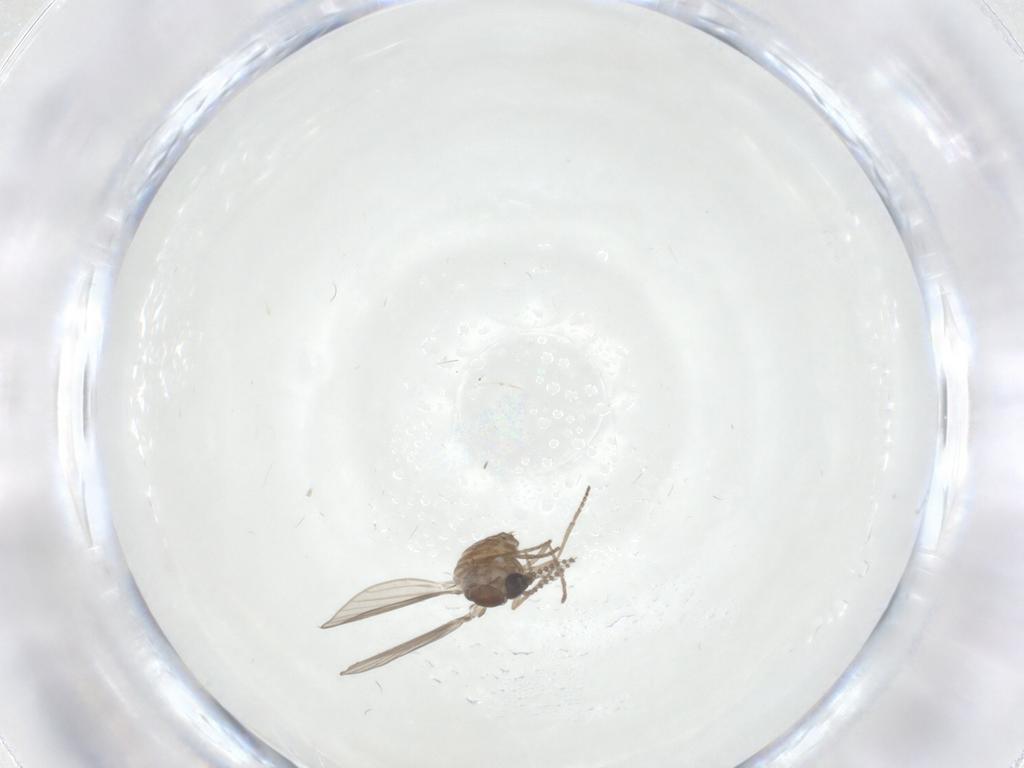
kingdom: Animalia
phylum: Arthropoda
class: Insecta
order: Diptera
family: Psychodidae
